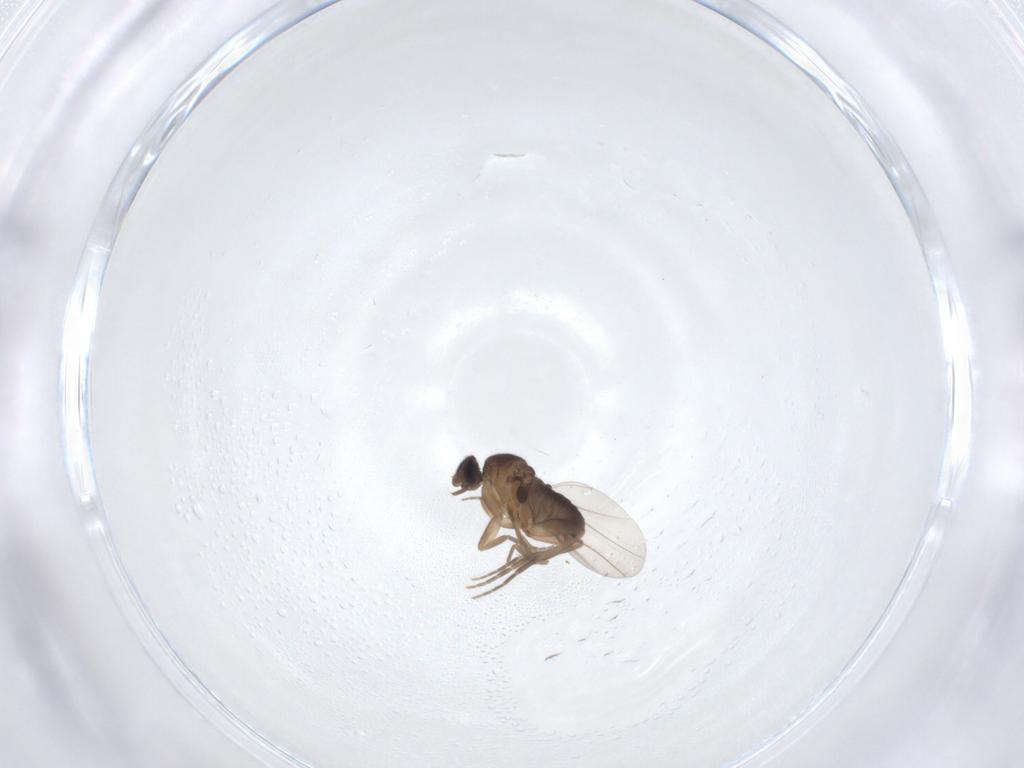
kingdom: Animalia
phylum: Arthropoda
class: Insecta
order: Diptera
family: Phoridae
